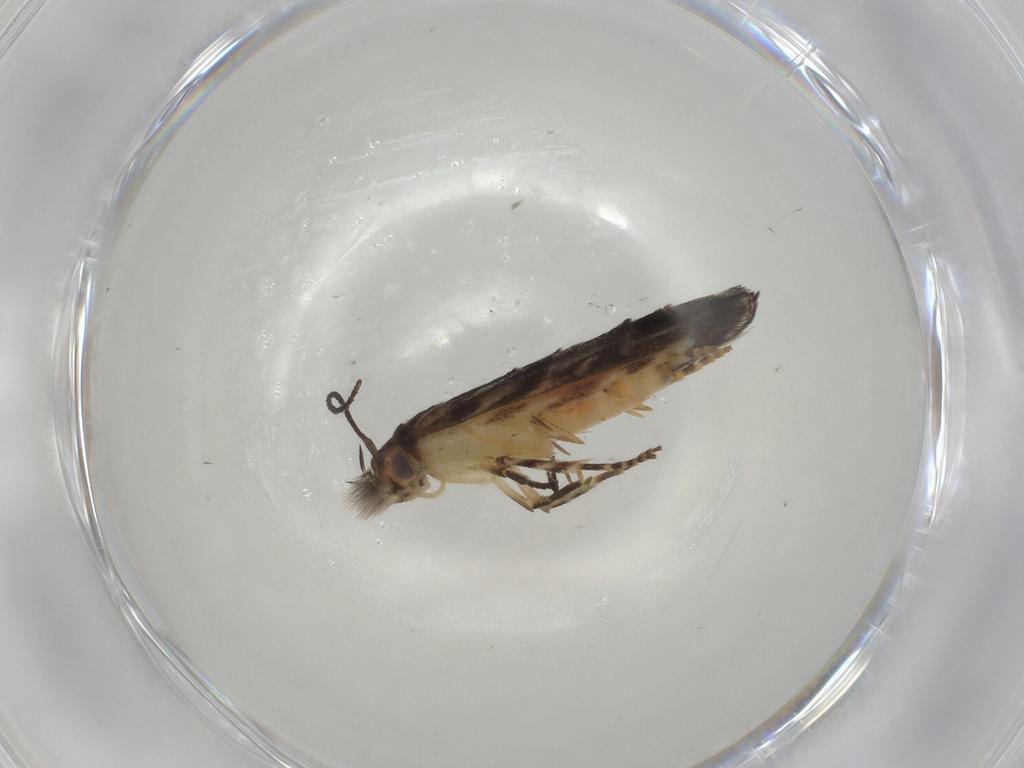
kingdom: Animalia
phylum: Arthropoda
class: Insecta
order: Lepidoptera
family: Elachistidae
